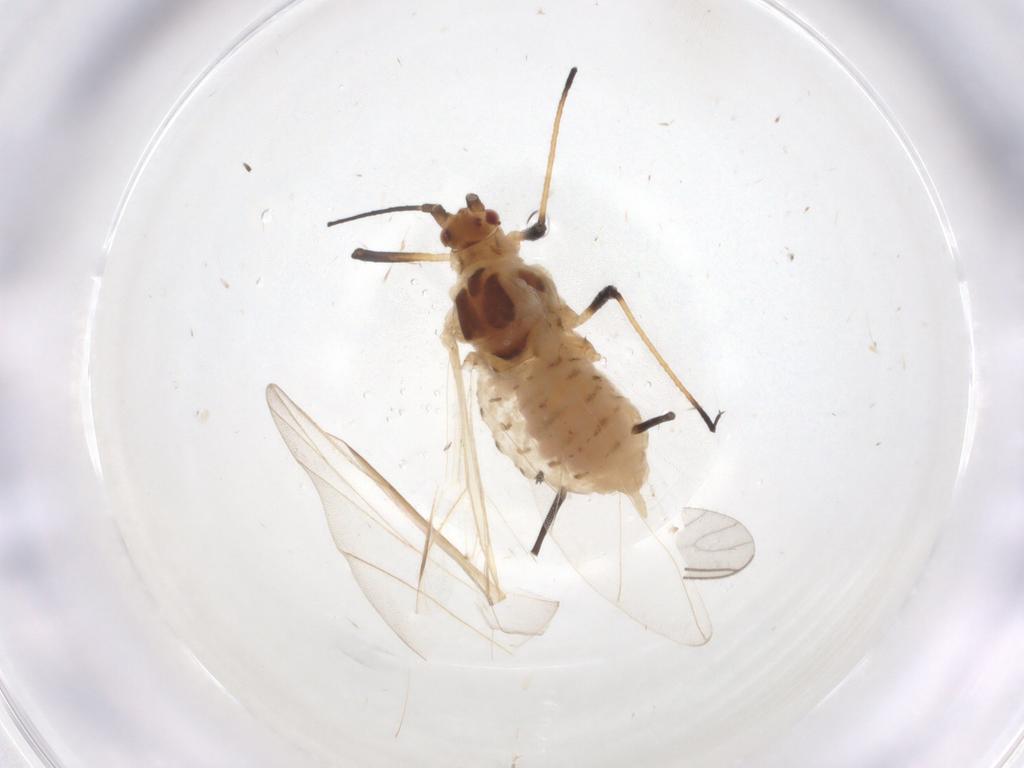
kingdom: Animalia
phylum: Arthropoda
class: Insecta
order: Hemiptera
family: Aphididae
